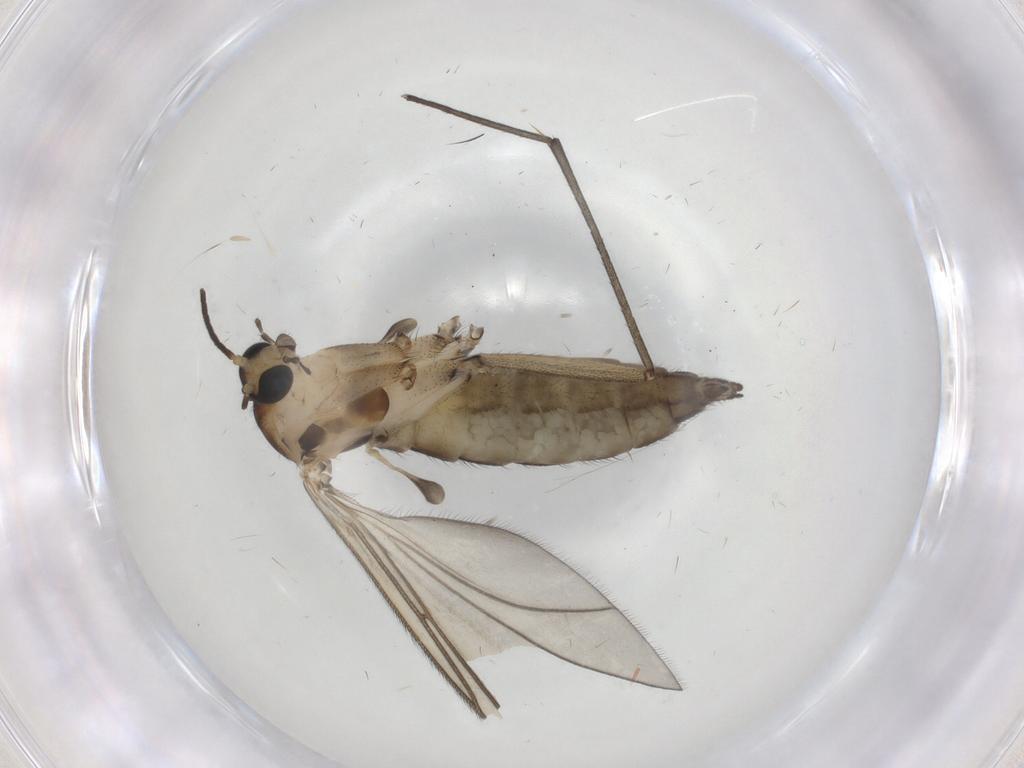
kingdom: Animalia
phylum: Arthropoda
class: Insecta
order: Diptera
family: Sciaridae
